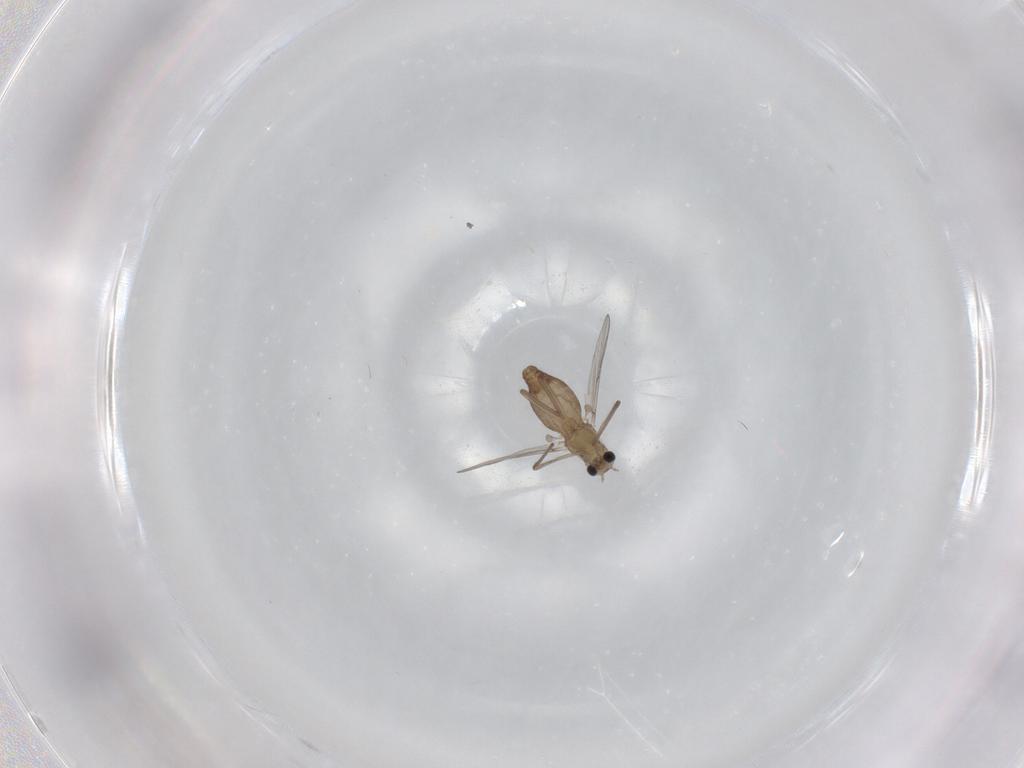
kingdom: Animalia
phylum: Arthropoda
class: Insecta
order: Diptera
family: Chironomidae
